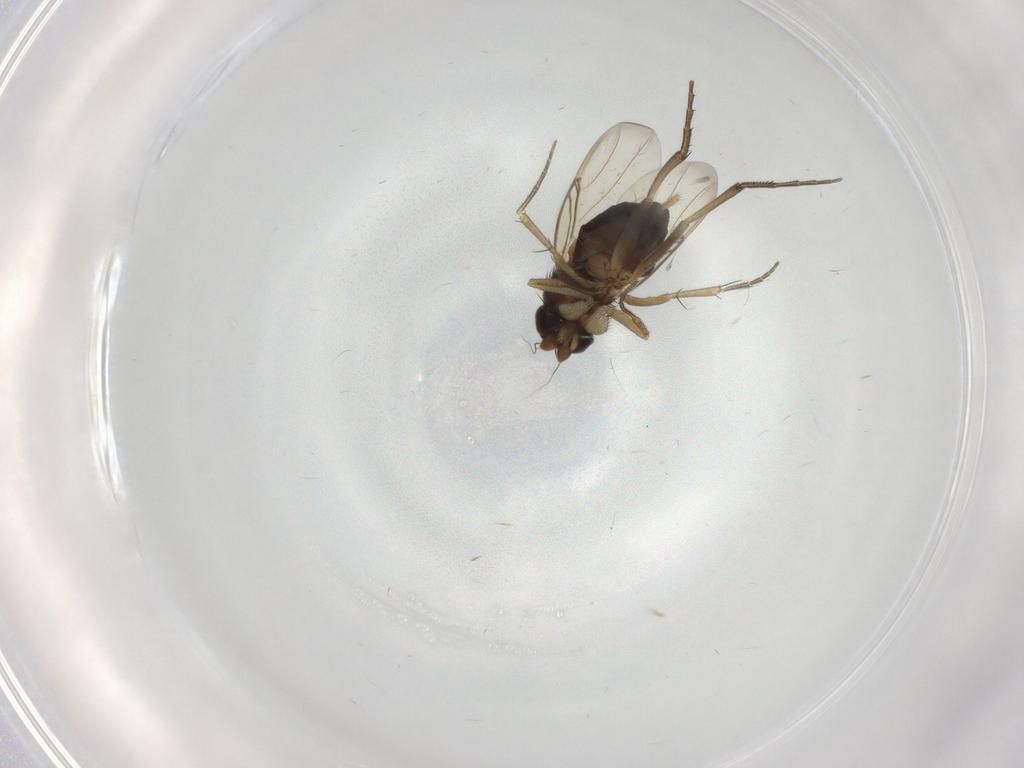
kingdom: Animalia
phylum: Arthropoda
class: Insecta
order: Diptera
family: Phoridae
